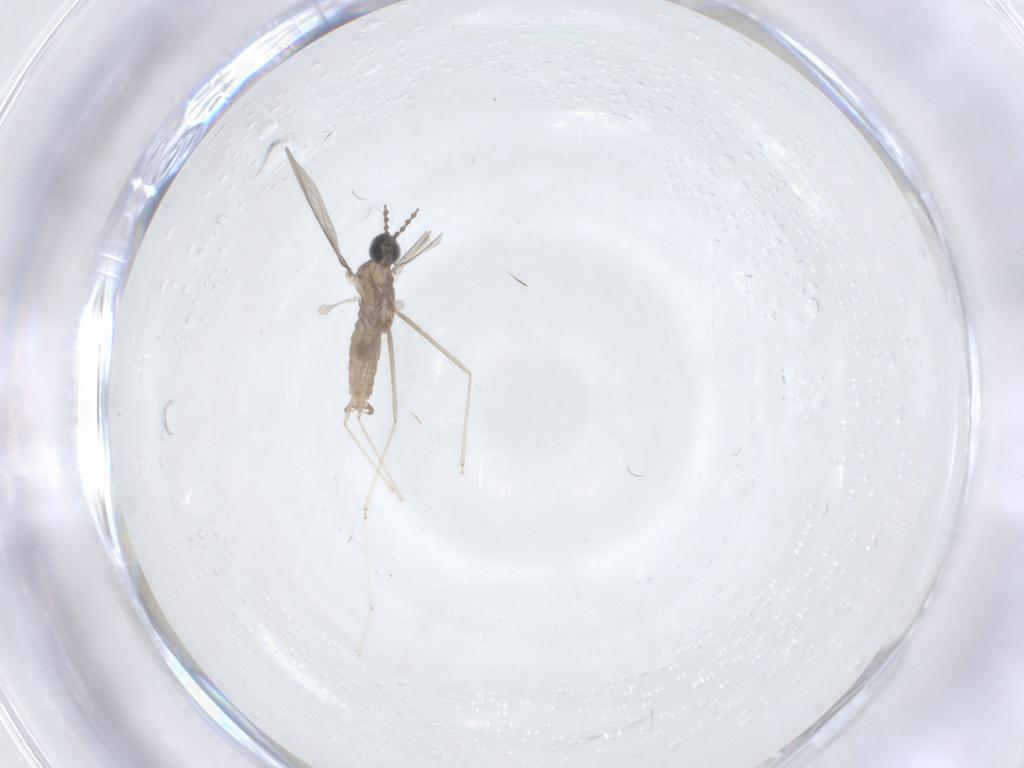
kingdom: Animalia
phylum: Arthropoda
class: Insecta
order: Diptera
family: Cecidomyiidae
